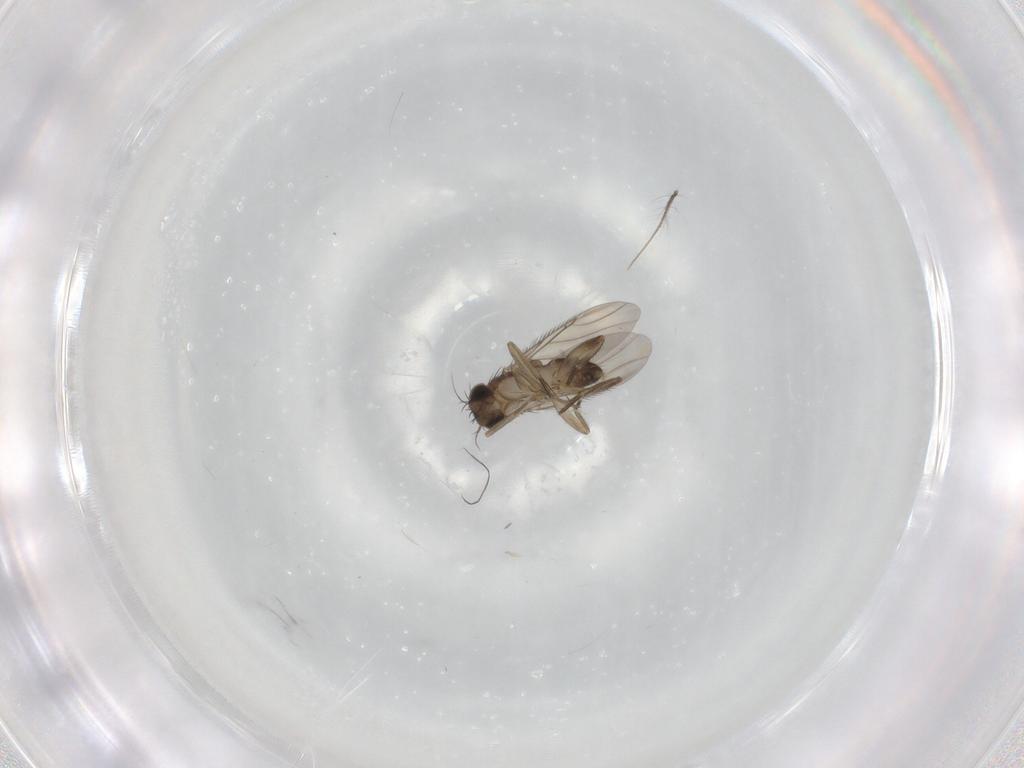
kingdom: Animalia
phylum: Arthropoda
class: Insecta
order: Diptera
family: Phoridae
